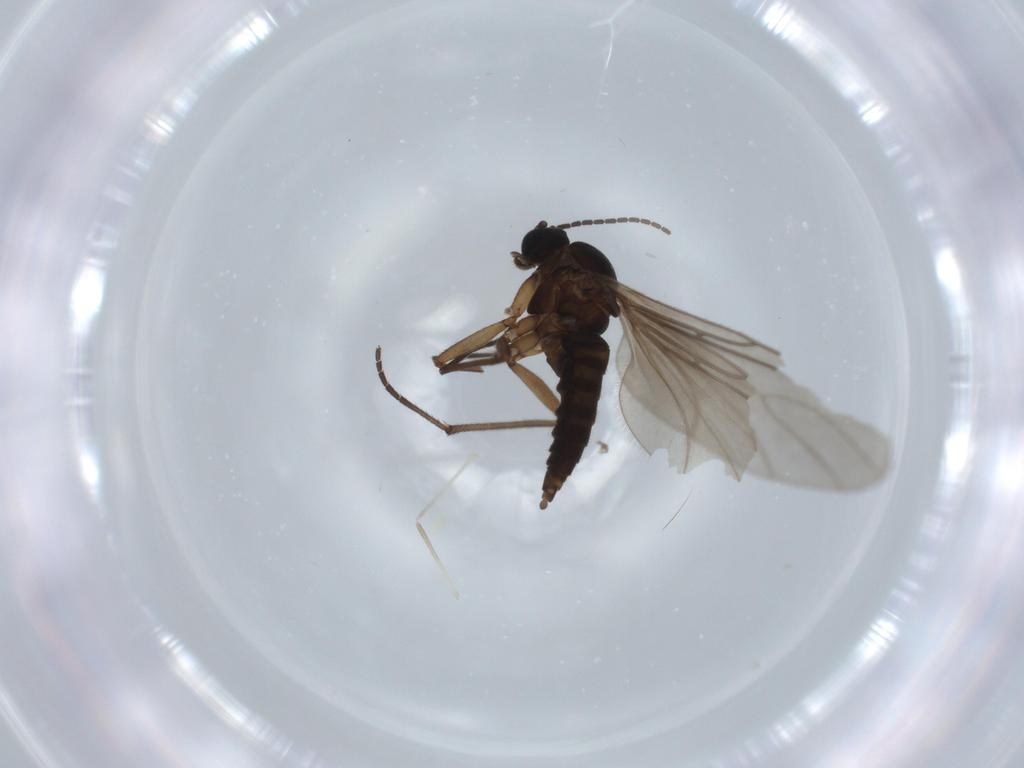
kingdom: Animalia
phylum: Arthropoda
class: Insecta
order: Diptera
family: Sciaridae
